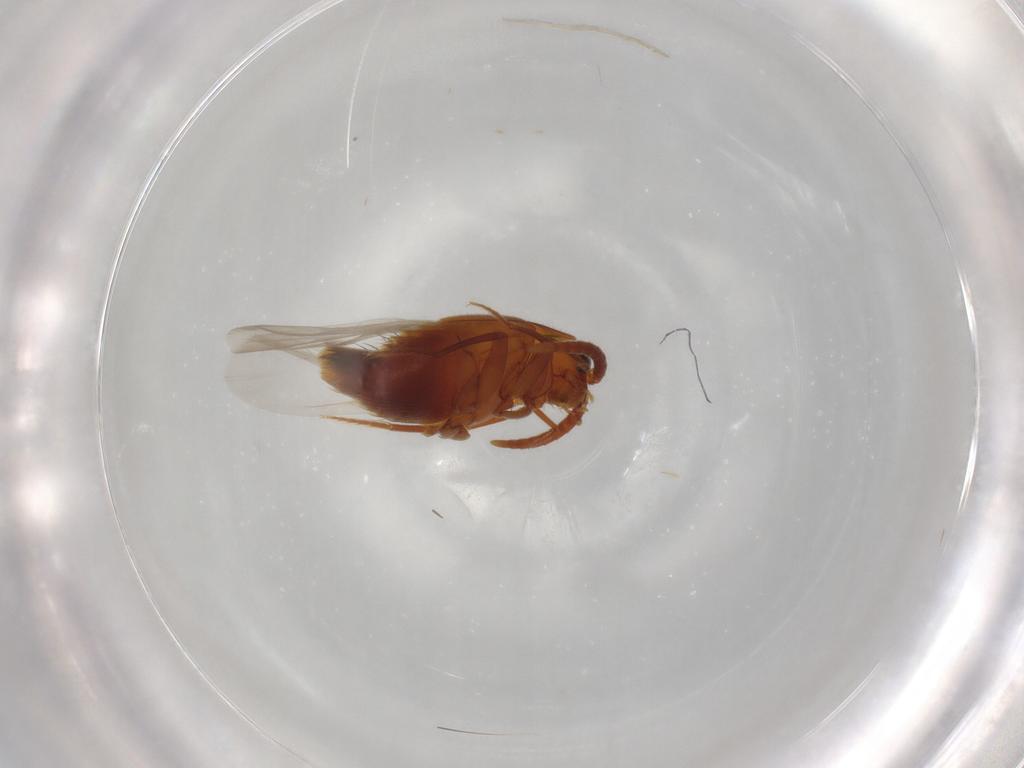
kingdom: Animalia
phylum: Arthropoda
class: Insecta
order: Coleoptera
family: Staphylinidae
